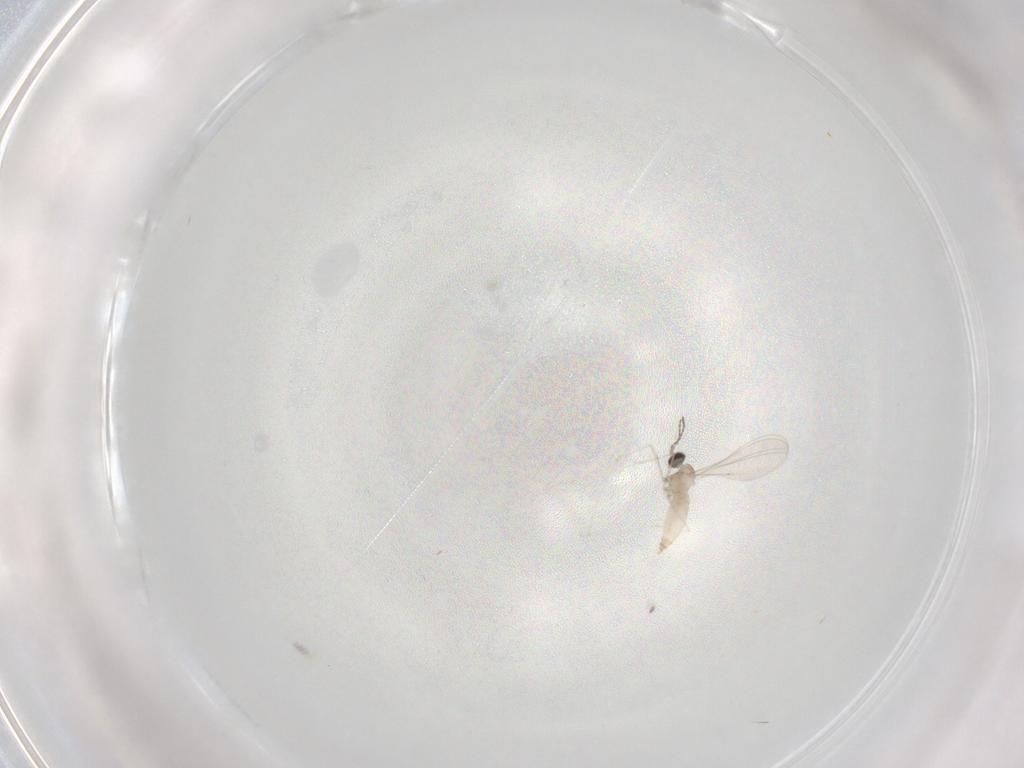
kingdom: Animalia
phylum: Arthropoda
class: Insecta
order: Diptera
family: Cecidomyiidae
